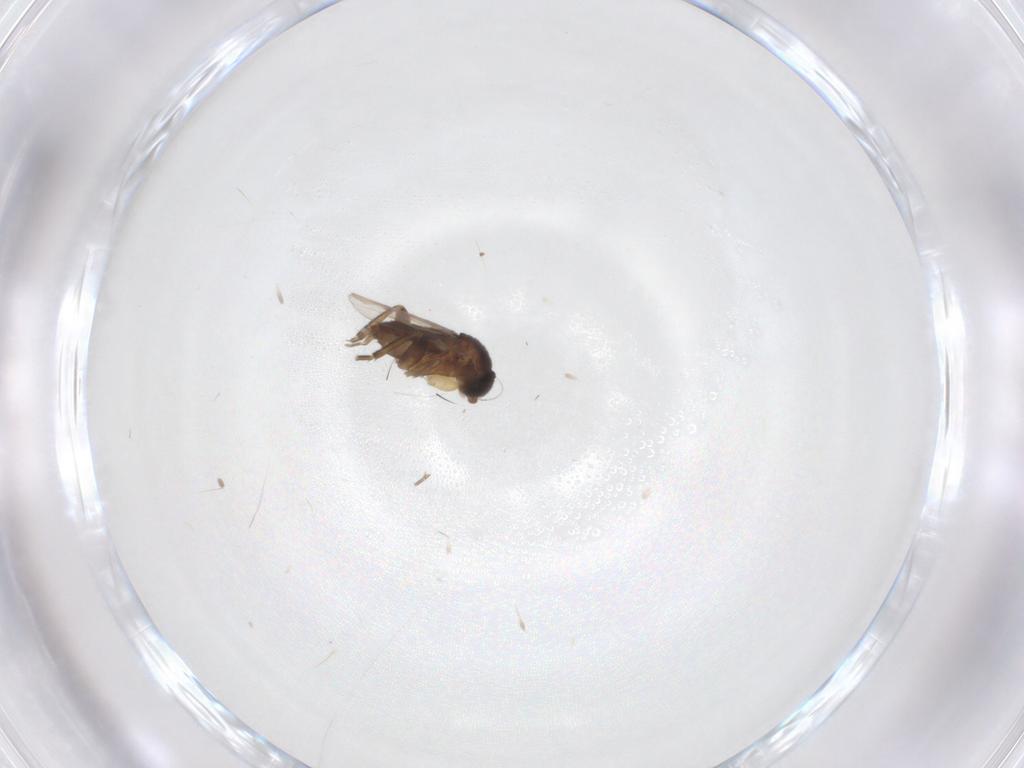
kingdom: Animalia
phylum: Arthropoda
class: Insecta
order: Diptera
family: Phoridae
